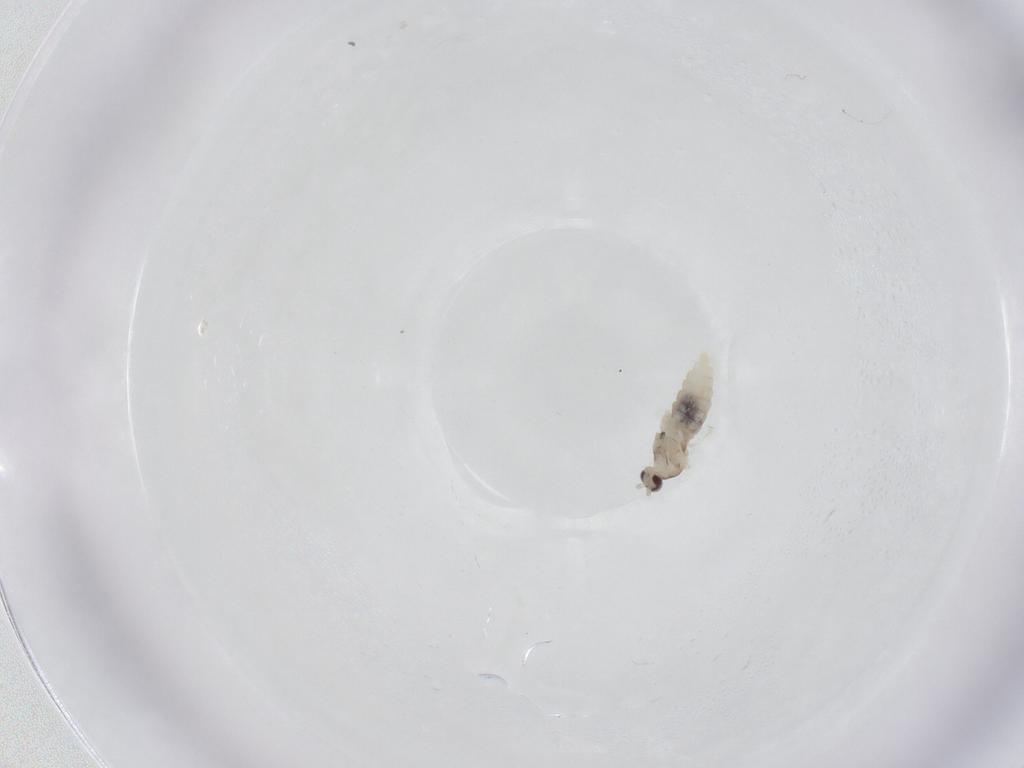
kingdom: Animalia
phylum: Arthropoda
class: Insecta
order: Diptera
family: Cecidomyiidae
